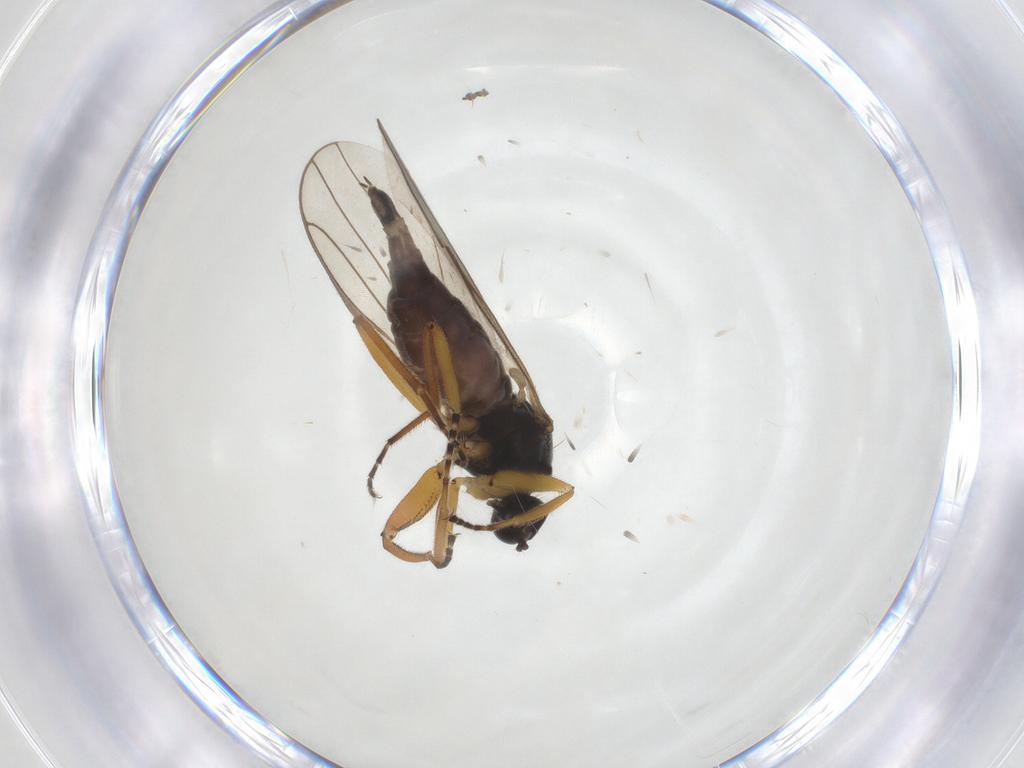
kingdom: Animalia
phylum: Arthropoda
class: Insecta
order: Diptera
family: Hybotidae
